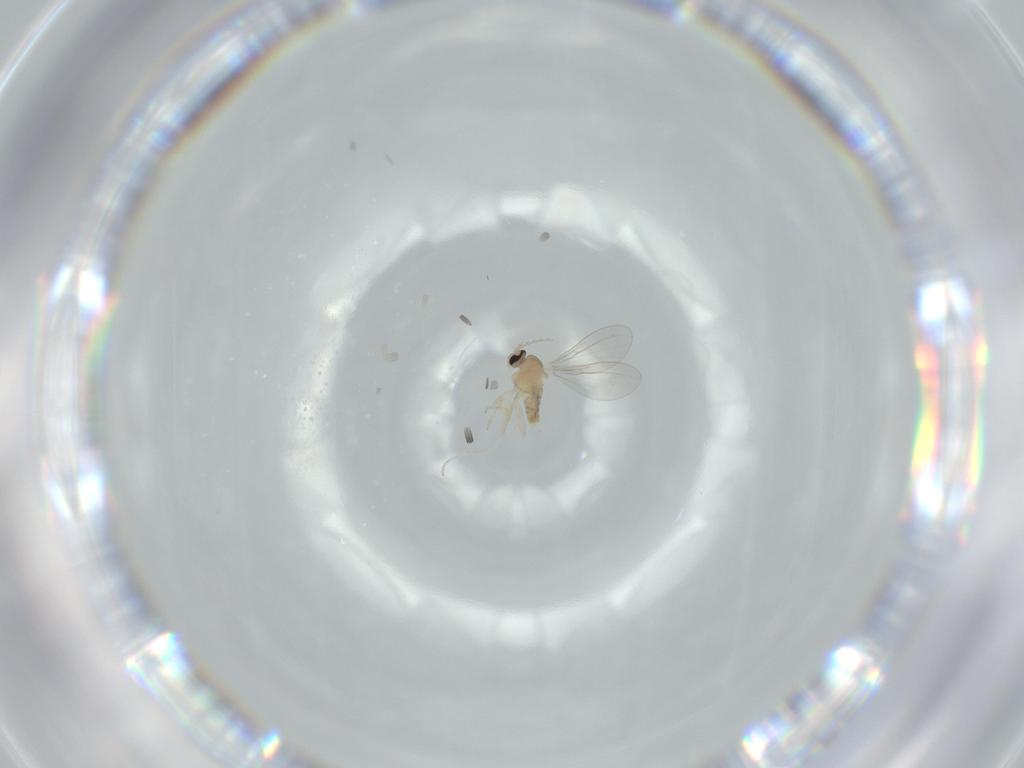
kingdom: Animalia
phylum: Arthropoda
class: Insecta
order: Diptera
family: Cecidomyiidae
